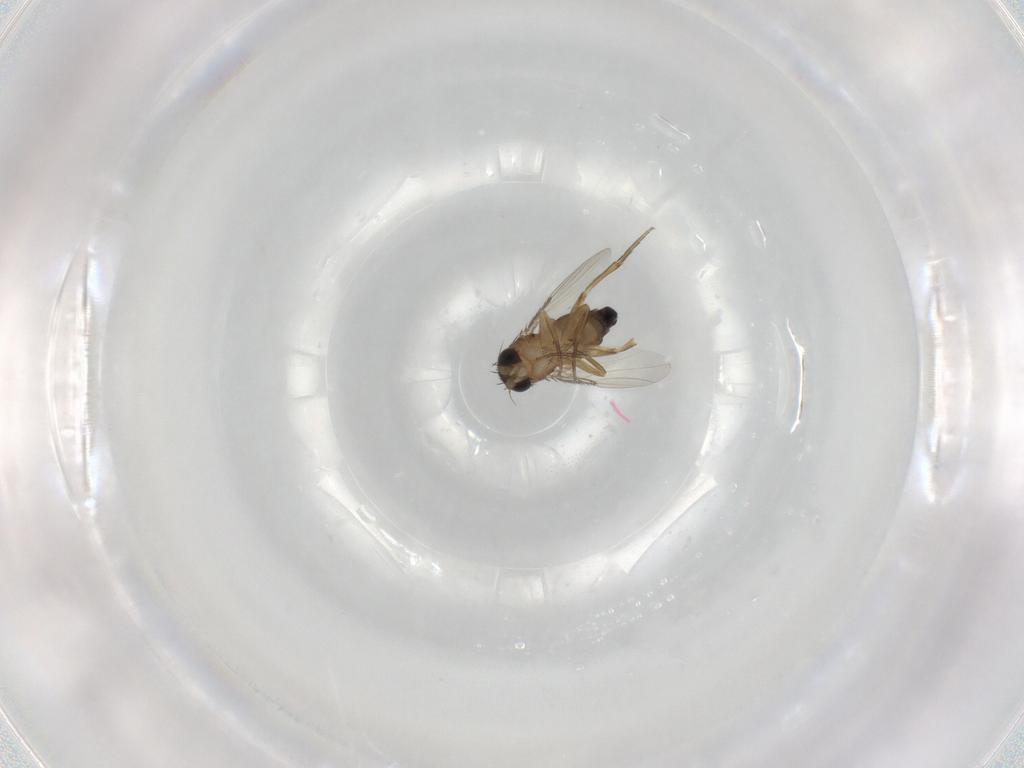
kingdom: Animalia
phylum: Arthropoda
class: Insecta
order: Diptera
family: Phoridae
